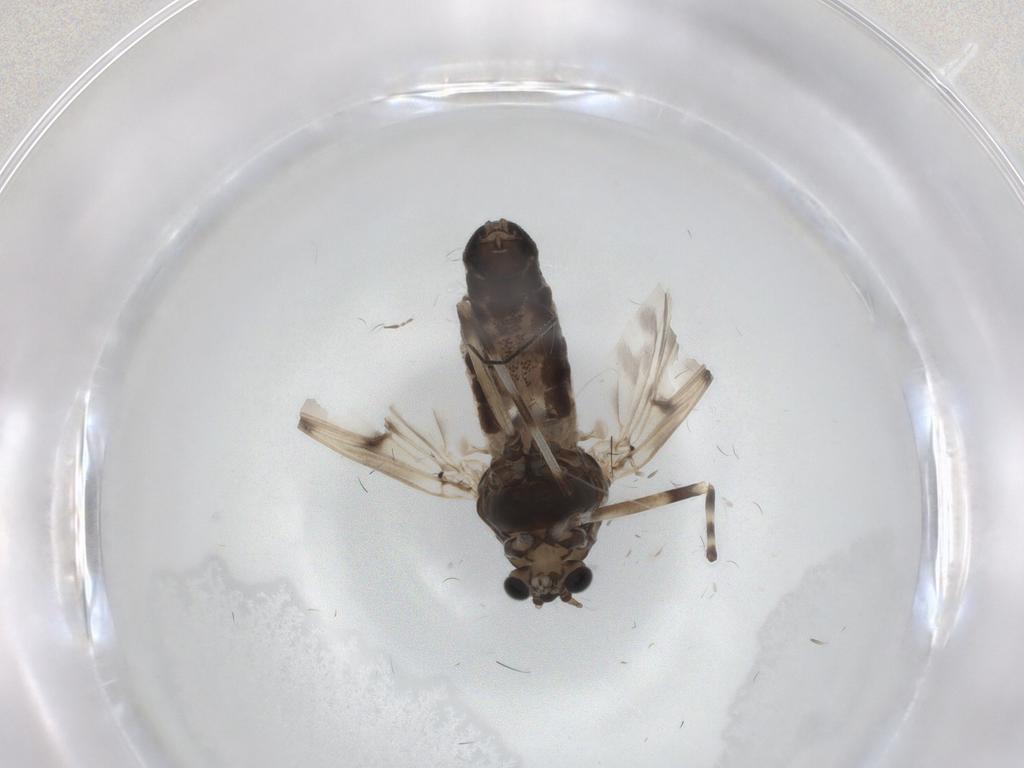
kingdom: Animalia
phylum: Arthropoda
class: Insecta
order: Diptera
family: Chironomidae
